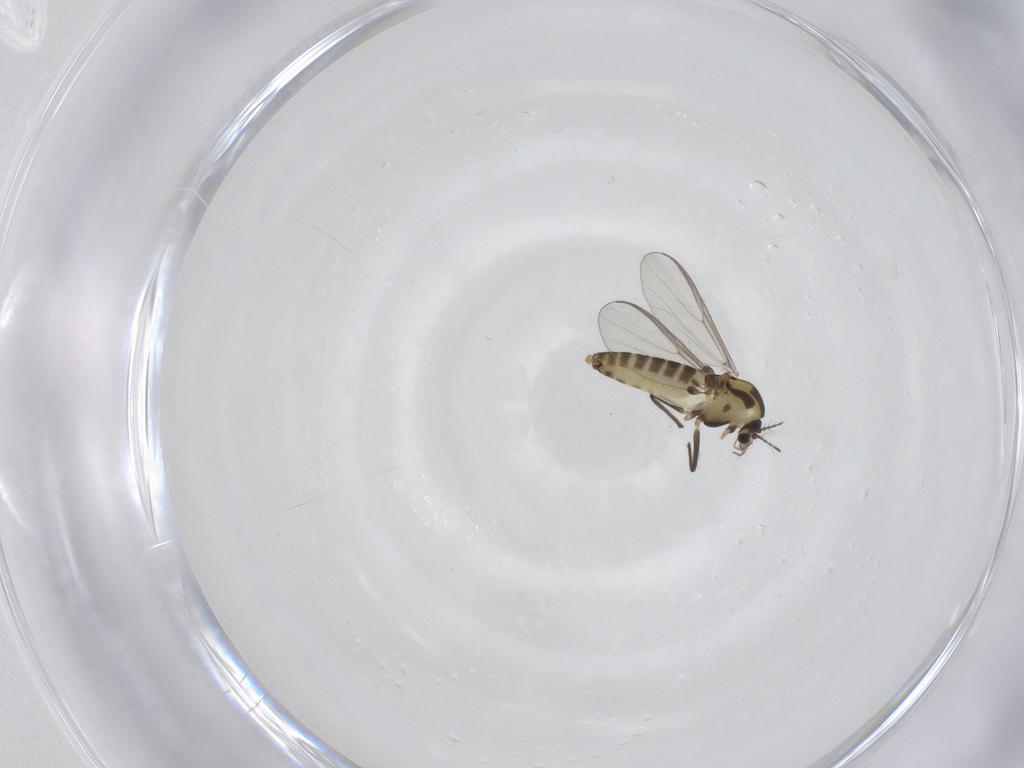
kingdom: Animalia
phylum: Arthropoda
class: Insecta
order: Diptera
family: Chironomidae
